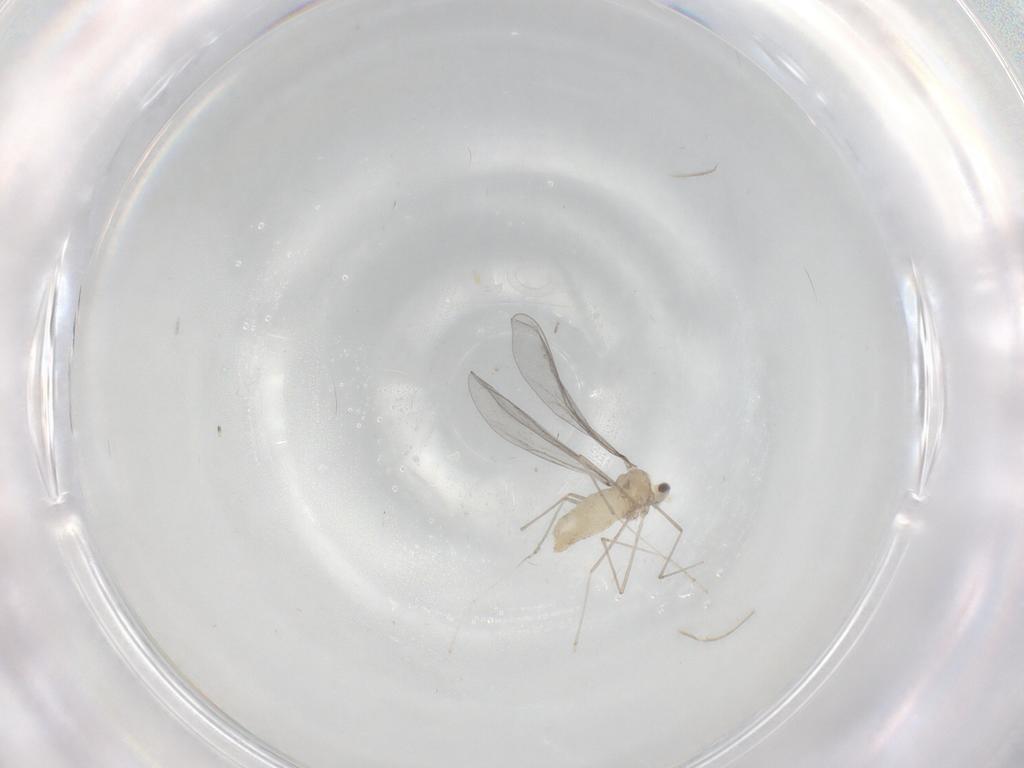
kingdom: Animalia
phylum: Arthropoda
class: Insecta
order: Diptera
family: Cecidomyiidae
